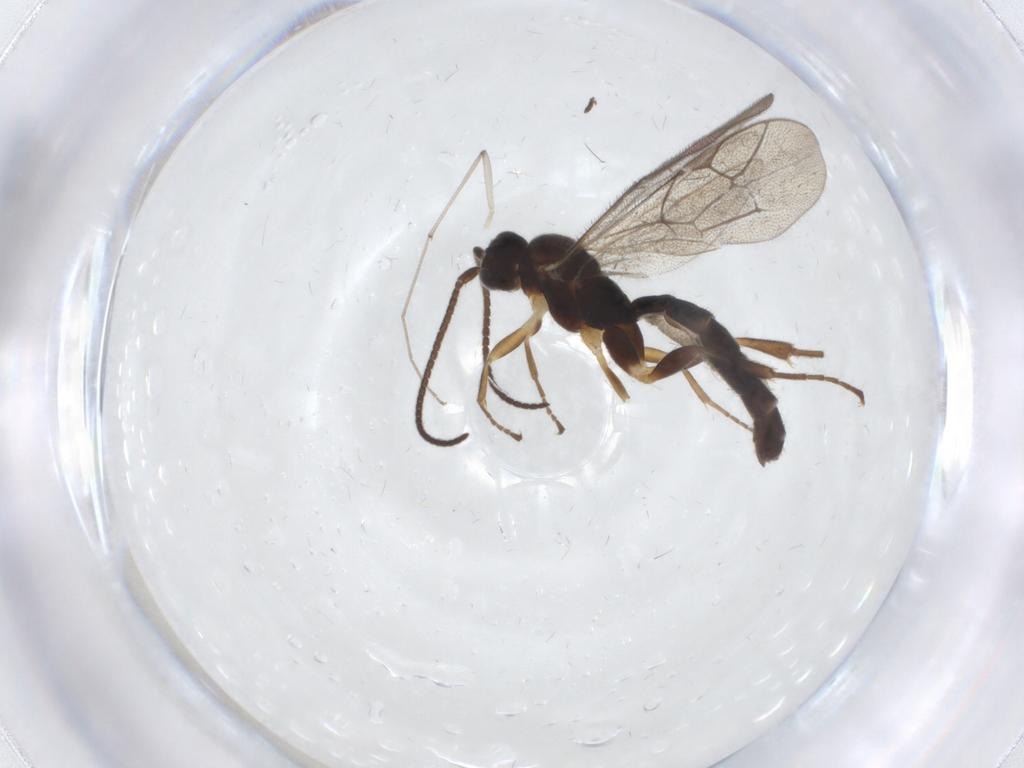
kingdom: Animalia
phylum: Arthropoda
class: Insecta
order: Hymenoptera
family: Ichneumonidae
